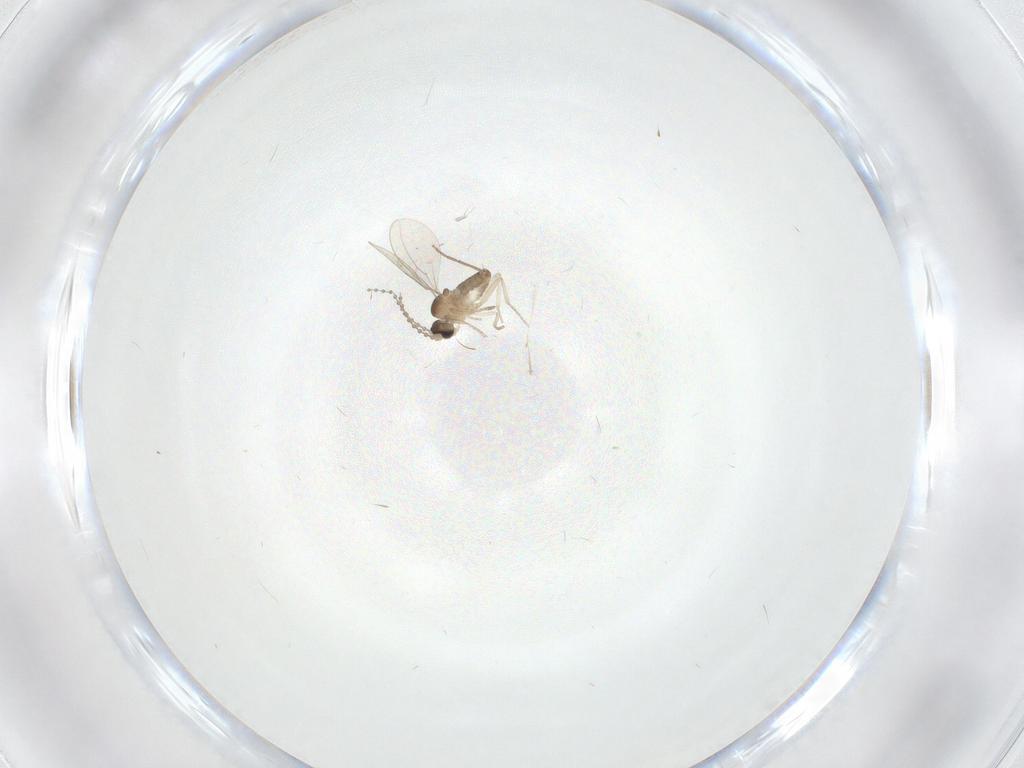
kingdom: Animalia
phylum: Arthropoda
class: Insecta
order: Diptera
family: Cecidomyiidae
